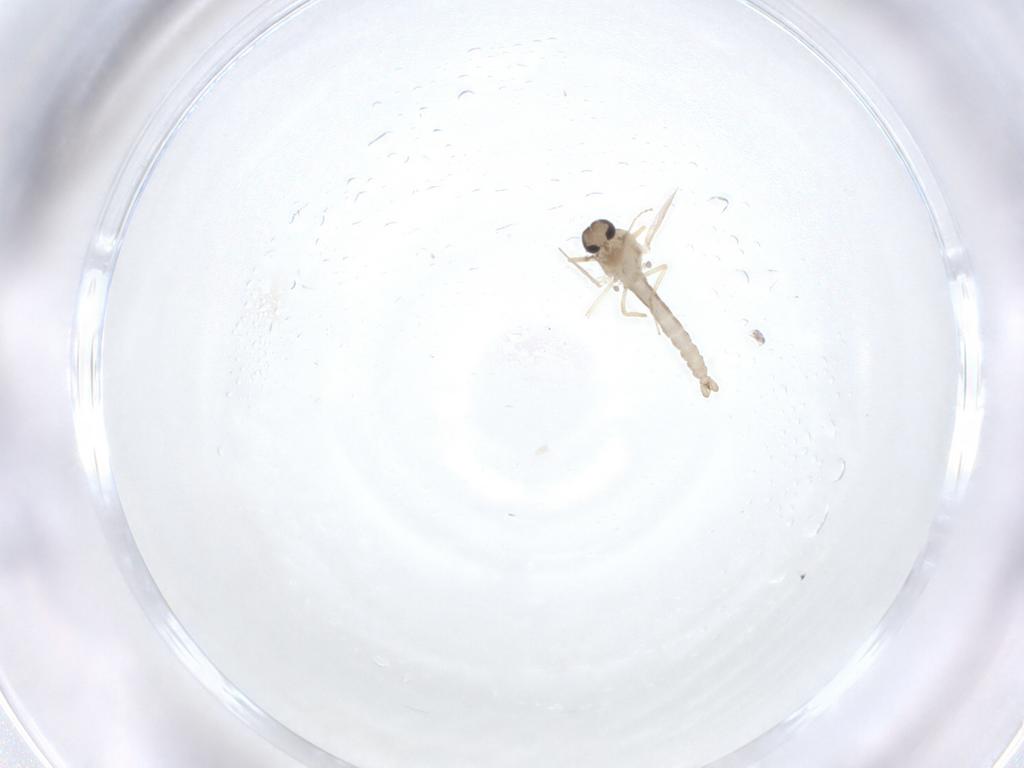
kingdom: Animalia
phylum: Arthropoda
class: Insecta
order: Diptera
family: Ceratopogonidae
